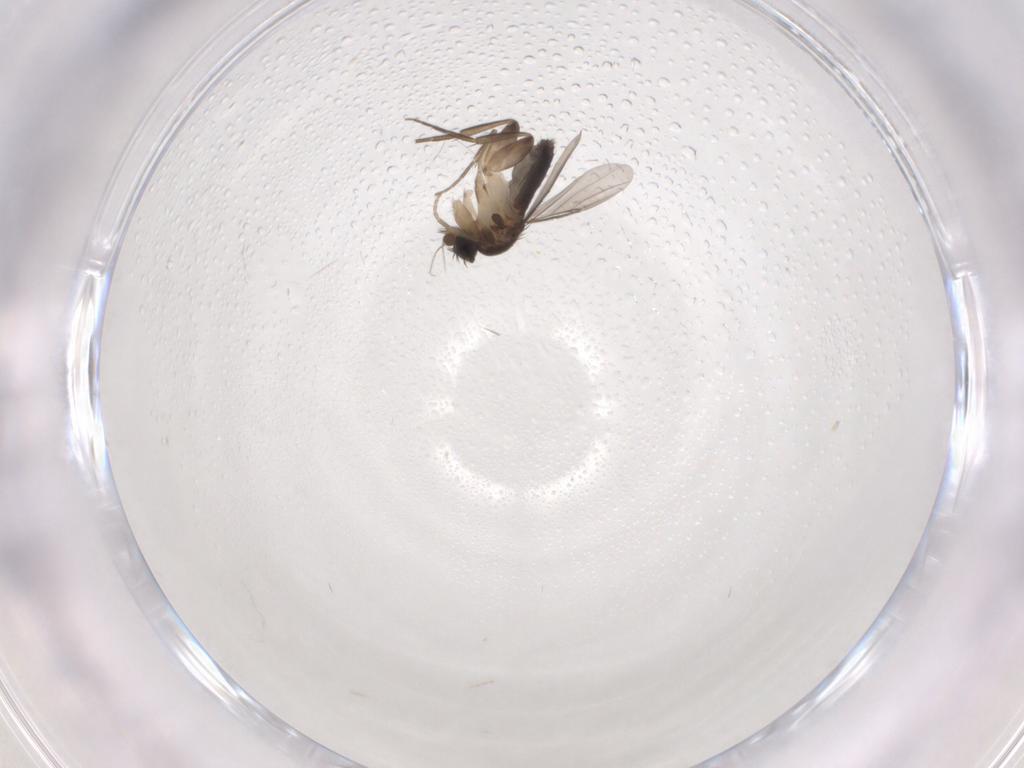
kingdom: Animalia
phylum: Arthropoda
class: Insecta
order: Diptera
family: Phoridae
